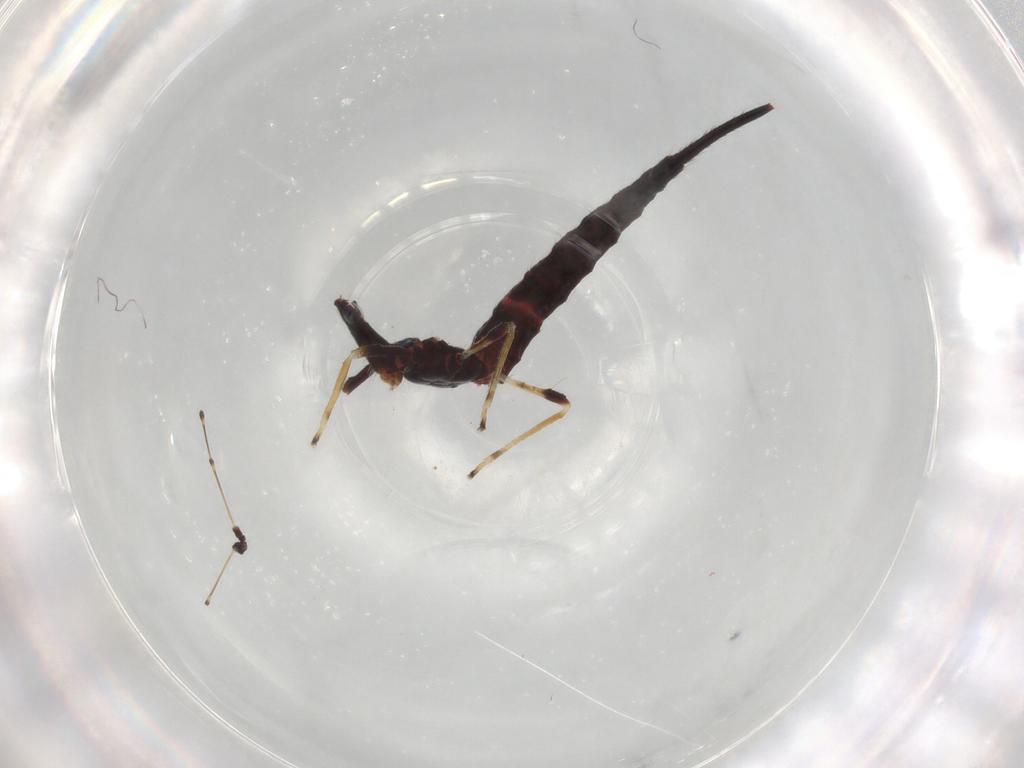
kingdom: Animalia
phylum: Arthropoda
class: Insecta
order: Thysanoptera
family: Phlaeothripidae
